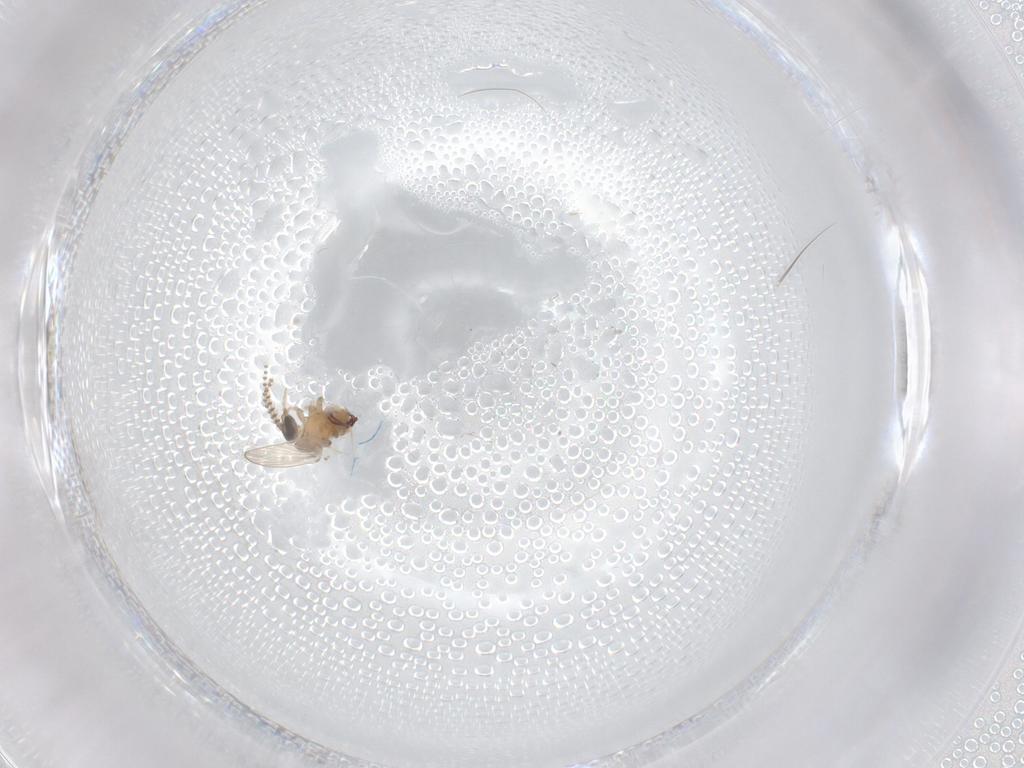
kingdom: Animalia
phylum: Arthropoda
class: Insecta
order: Diptera
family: Psychodidae
